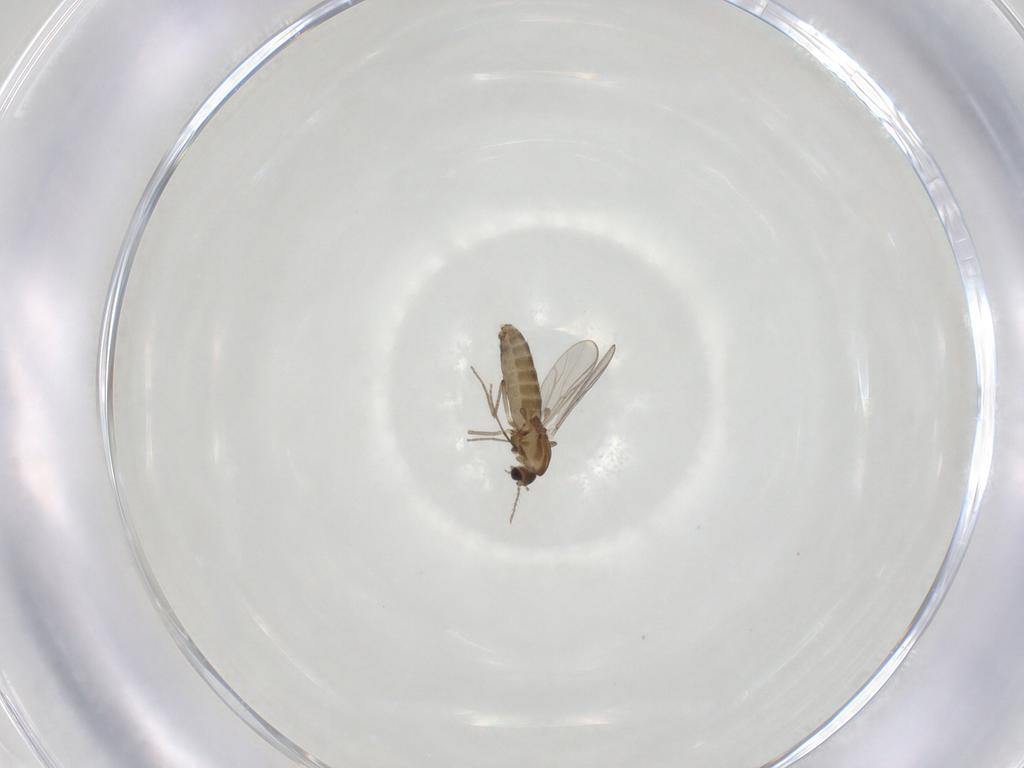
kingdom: Animalia
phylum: Arthropoda
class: Insecta
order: Diptera
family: Chironomidae
